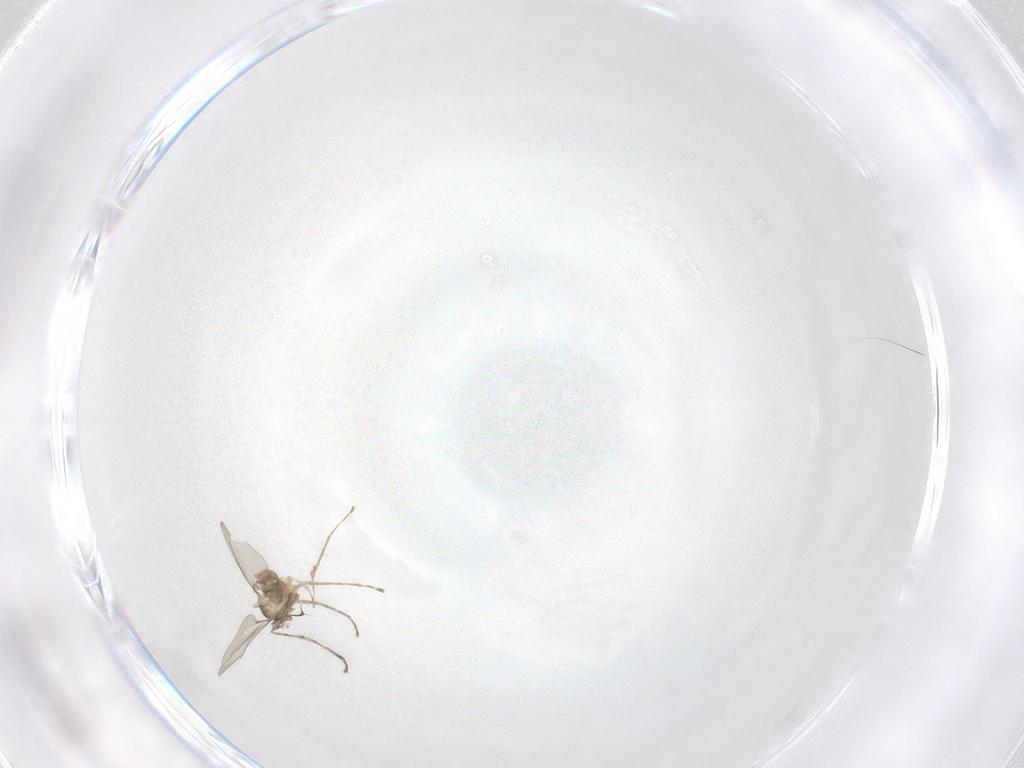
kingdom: Animalia
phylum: Arthropoda
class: Insecta
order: Diptera
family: Cecidomyiidae
